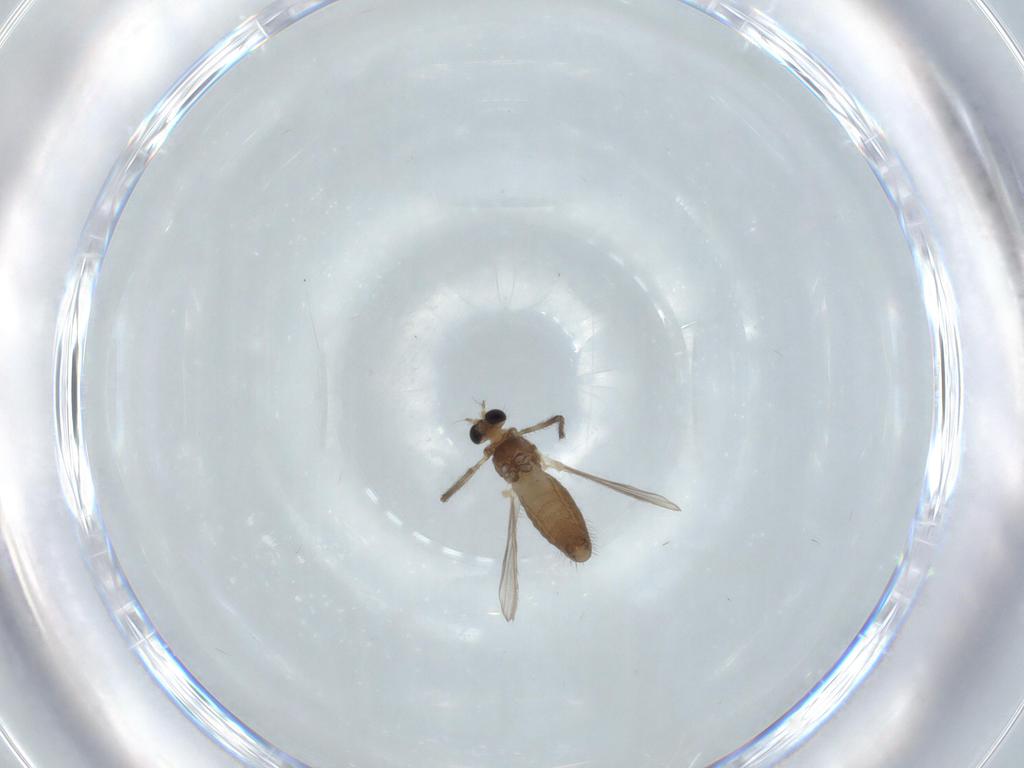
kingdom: Animalia
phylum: Arthropoda
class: Insecta
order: Diptera
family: Chironomidae
